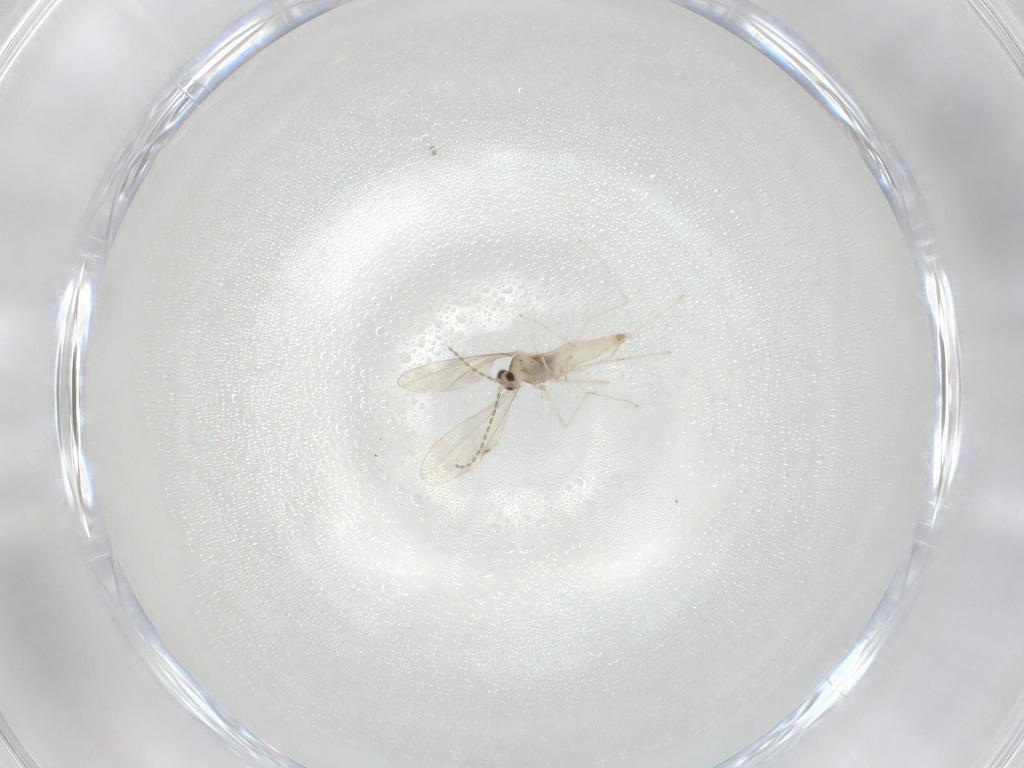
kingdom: Animalia
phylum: Arthropoda
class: Insecta
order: Diptera
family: Cecidomyiidae
